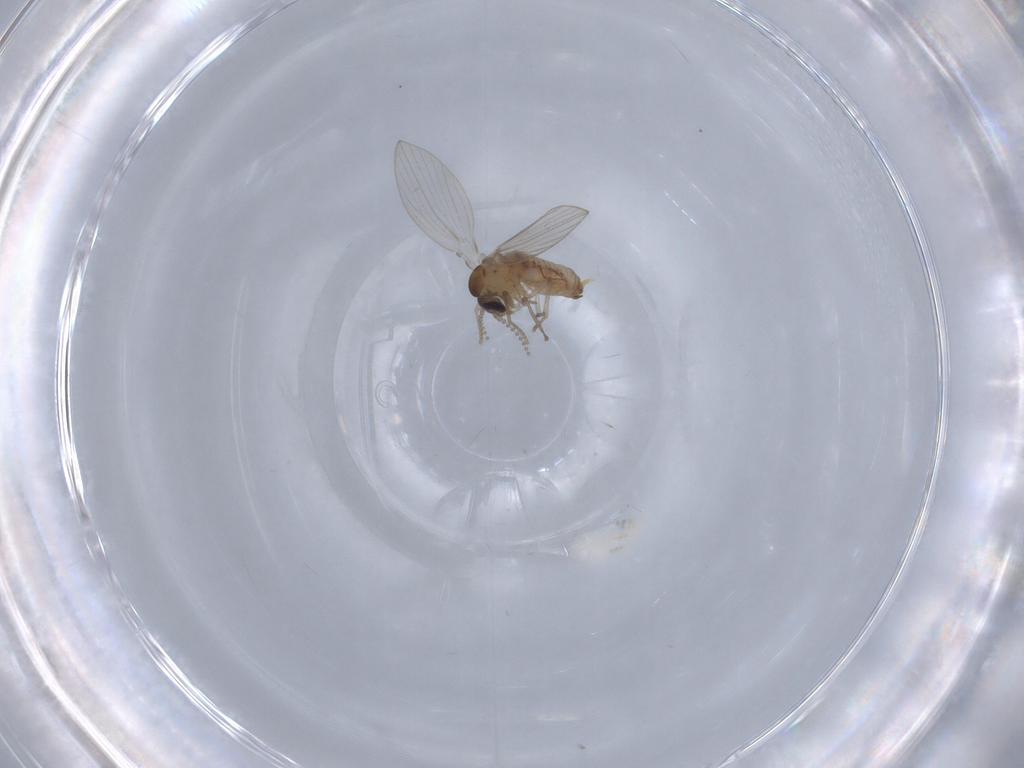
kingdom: Animalia
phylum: Arthropoda
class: Insecta
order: Diptera
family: Psychodidae
